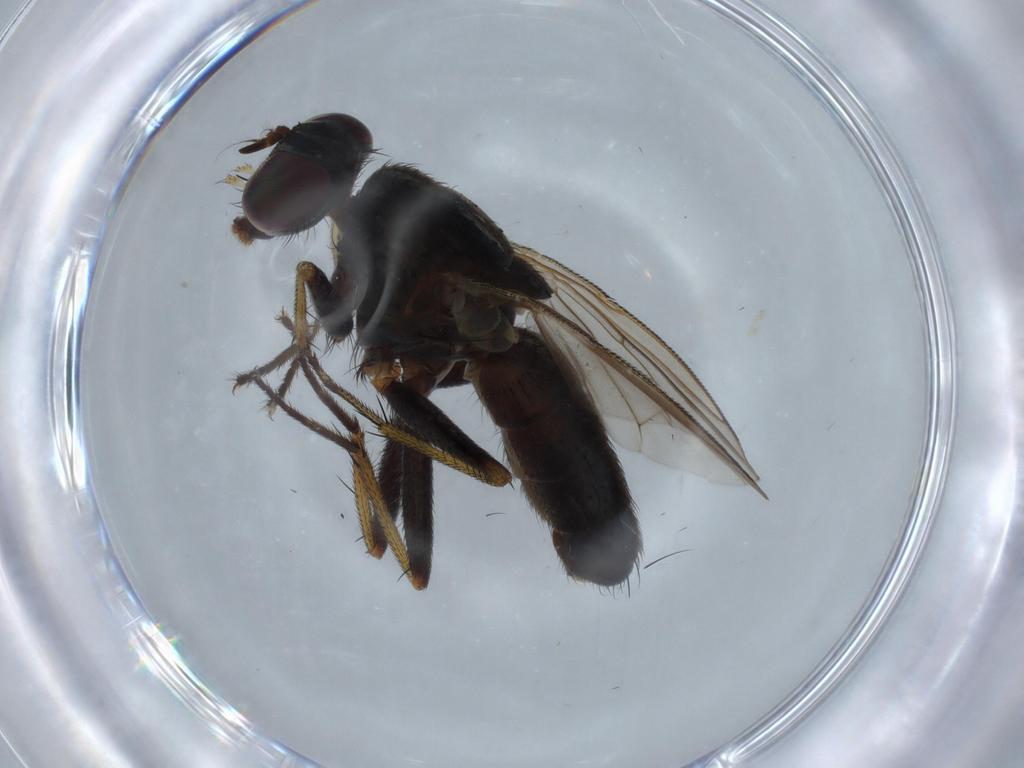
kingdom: Animalia
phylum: Arthropoda
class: Insecta
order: Diptera
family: Muscidae
